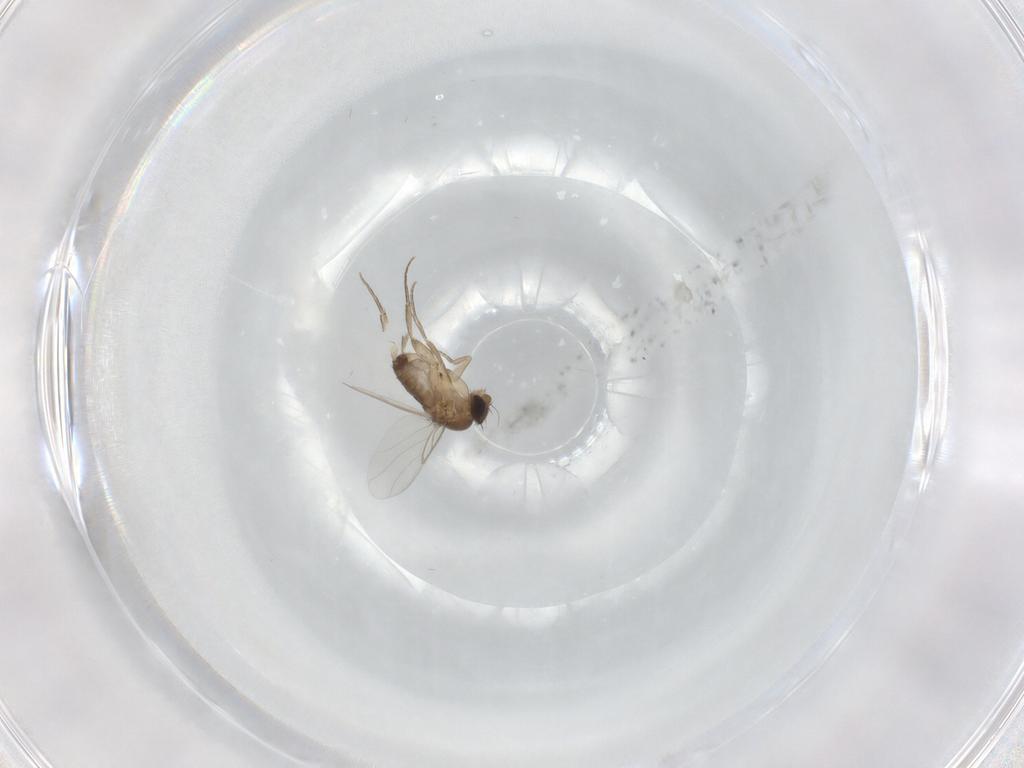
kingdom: Animalia
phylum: Arthropoda
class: Insecta
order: Diptera
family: Phoridae
